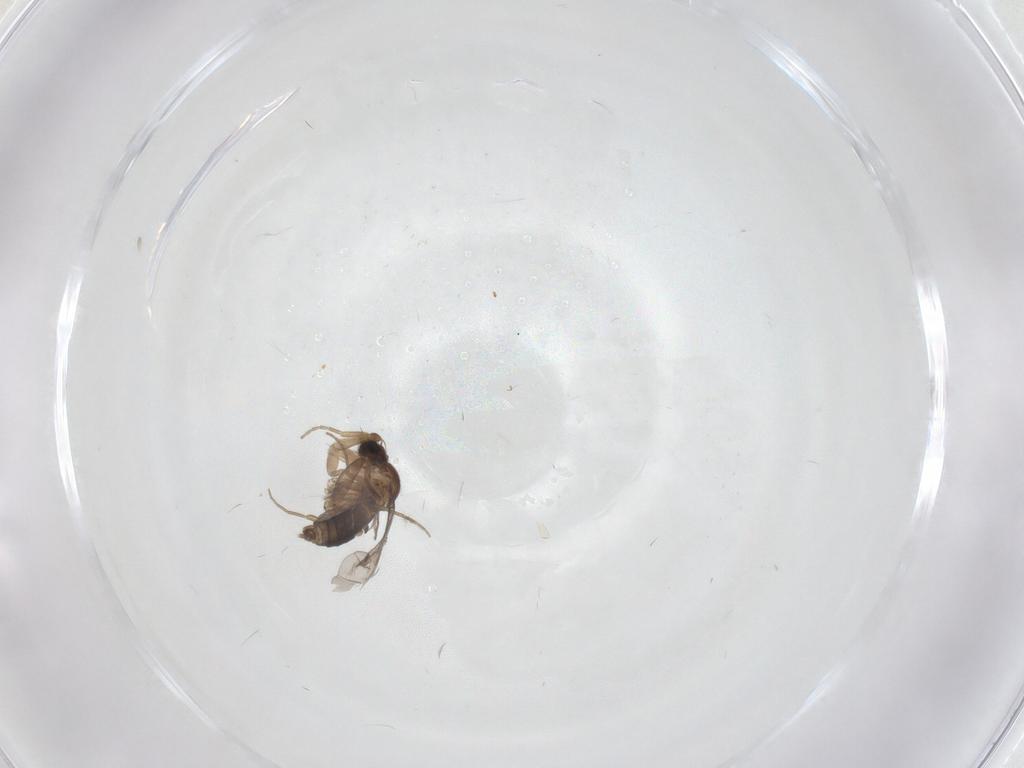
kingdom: Animalia
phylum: Arthropoda
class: Insecta
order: Diptera
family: Phoridae
